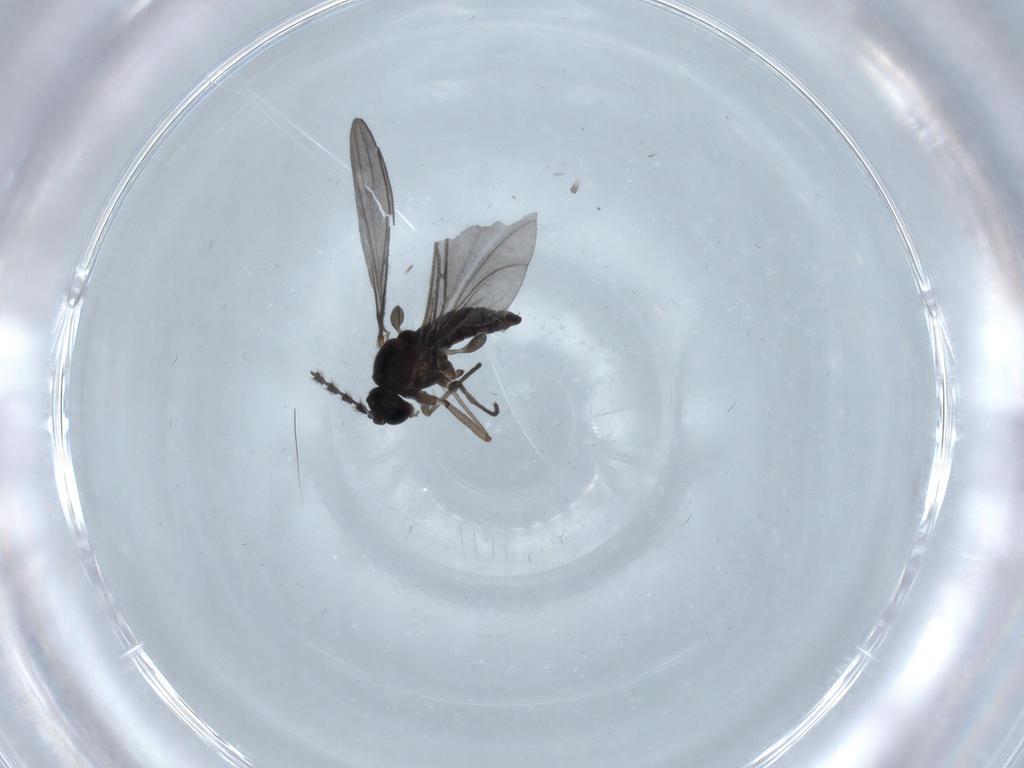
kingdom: Animalia
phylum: Arthropoda
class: Insecta
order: Diptera
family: Sciaridae
